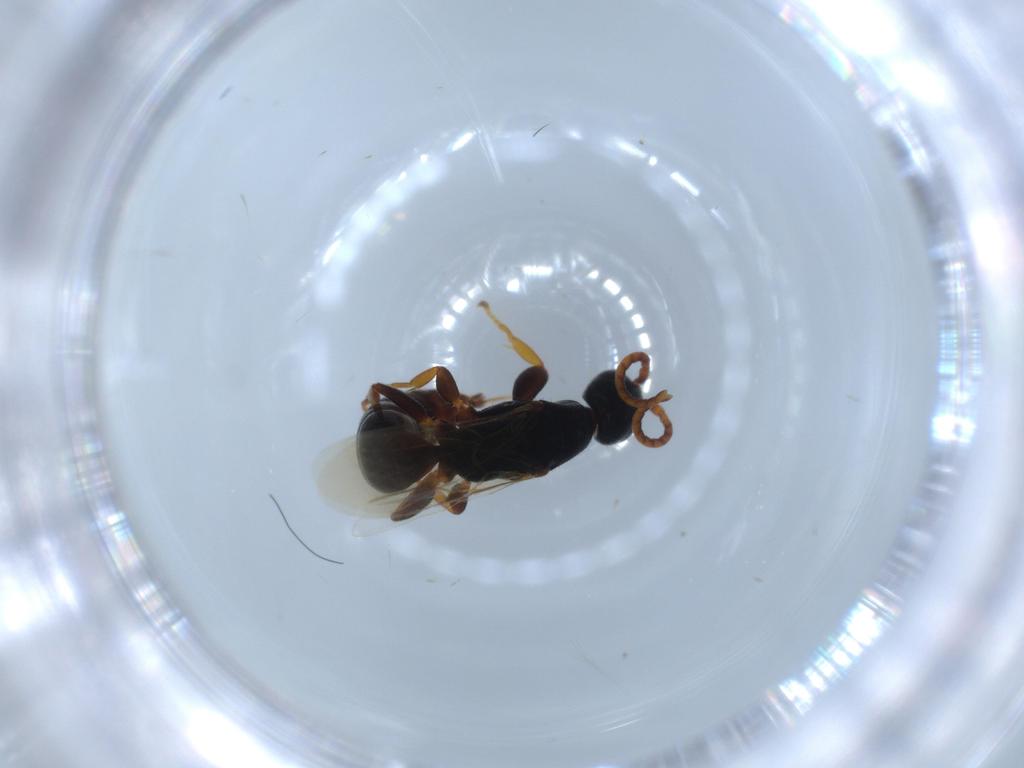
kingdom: Animalia
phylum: Arthropoda
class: Insecta
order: Hymenoptera
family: Bethylidae
